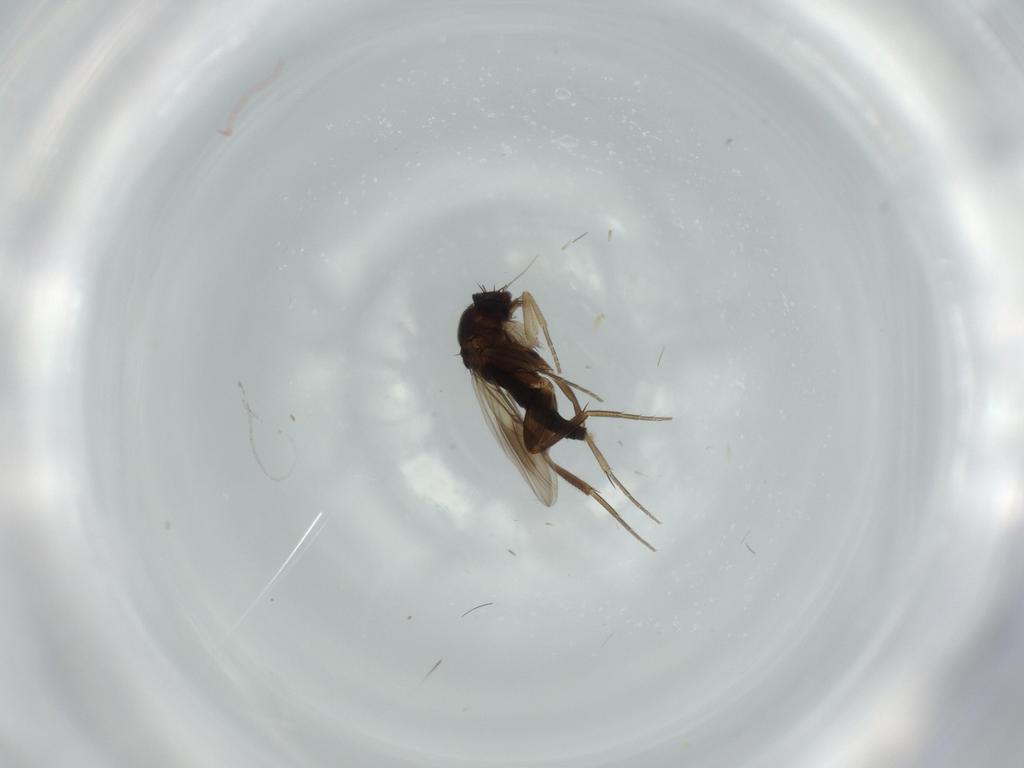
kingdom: Animalia
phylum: Arthropoda
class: Insecta
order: Diptera
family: Phoridae
